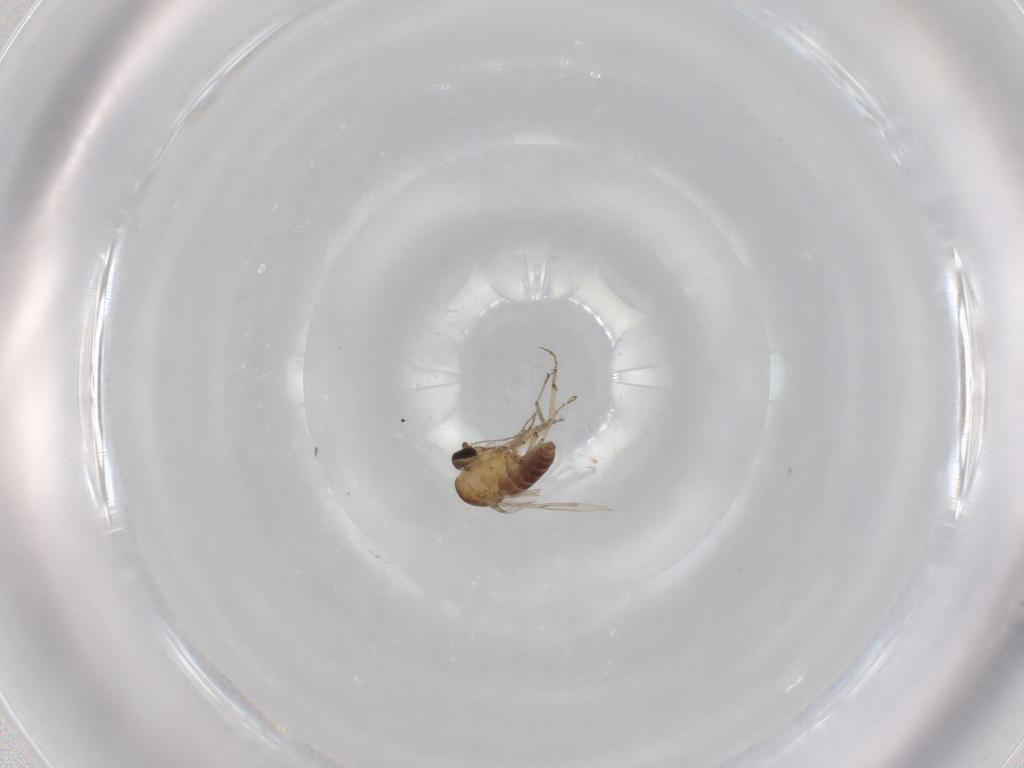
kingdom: Animalia
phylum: Arthropoda
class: Insecta
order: Diptera
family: Ceratopogonidae
